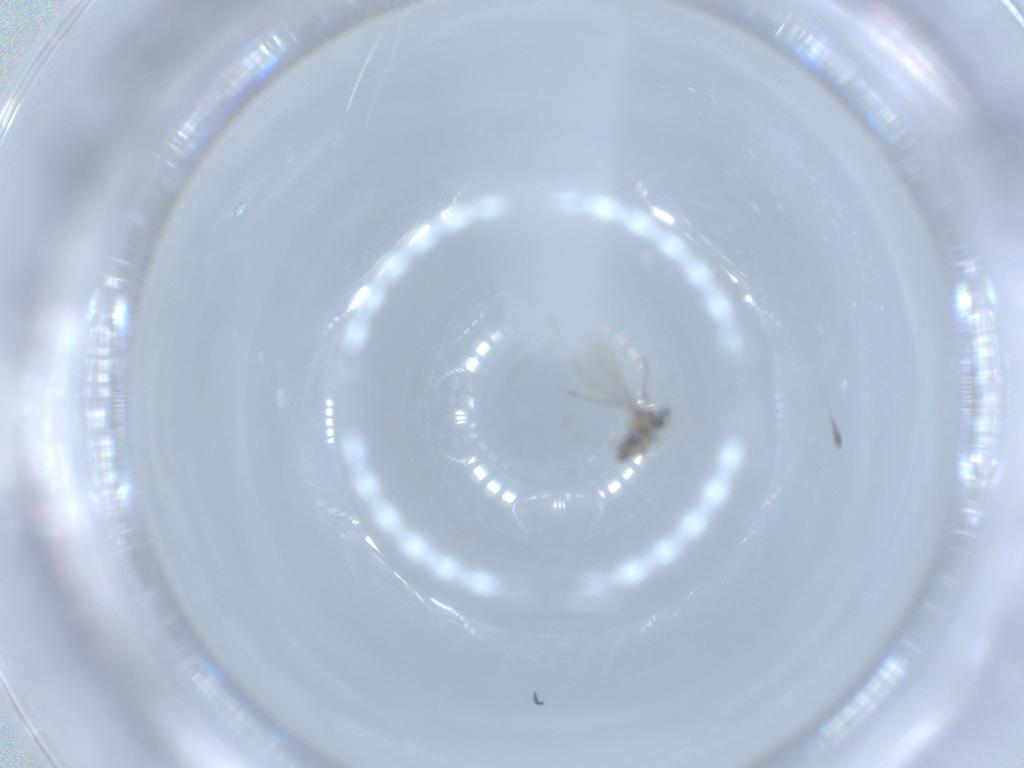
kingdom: Animalia
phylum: Arthropoda
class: Insecta
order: Diptera
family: Cecidomyiidae
